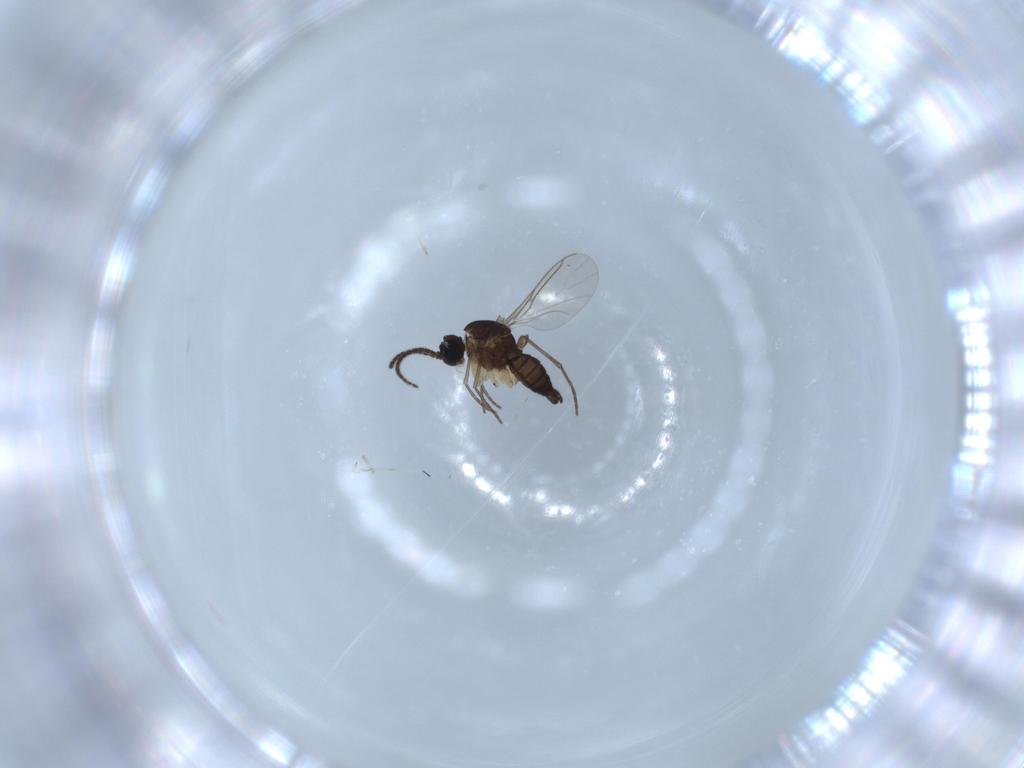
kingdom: Animalia
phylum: Arthropoda
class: Insecta
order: Diptera
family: Sciaridae
